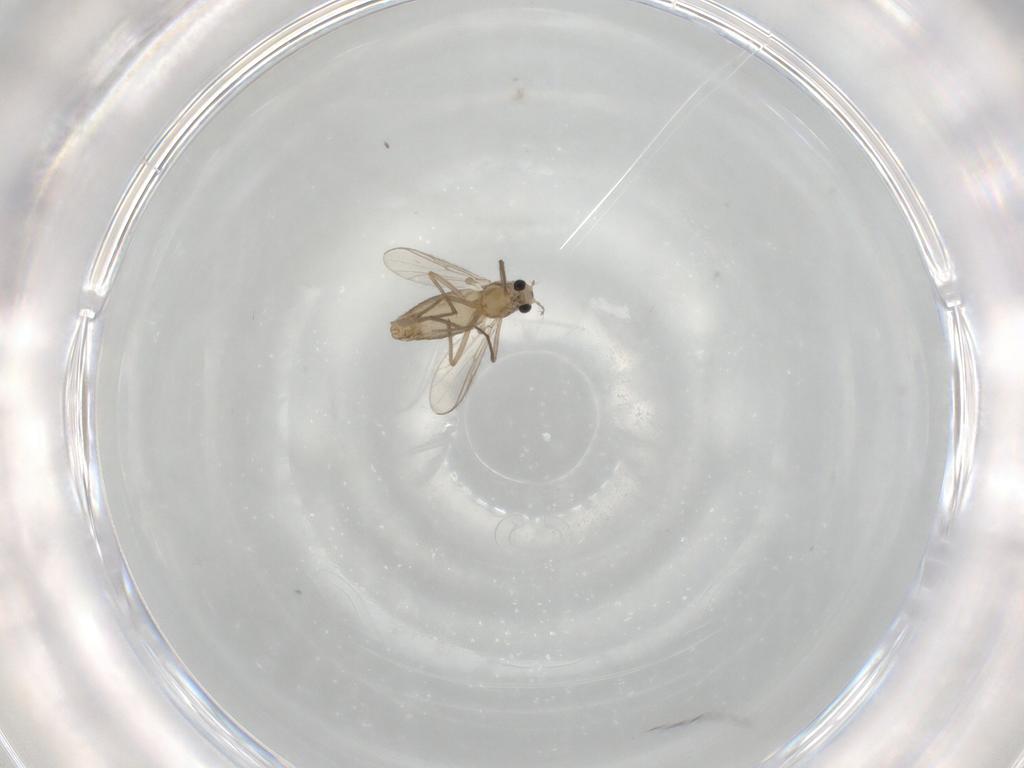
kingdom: Animalia
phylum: Arthropoda
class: Insecta
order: Diptera
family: Chironomidae
